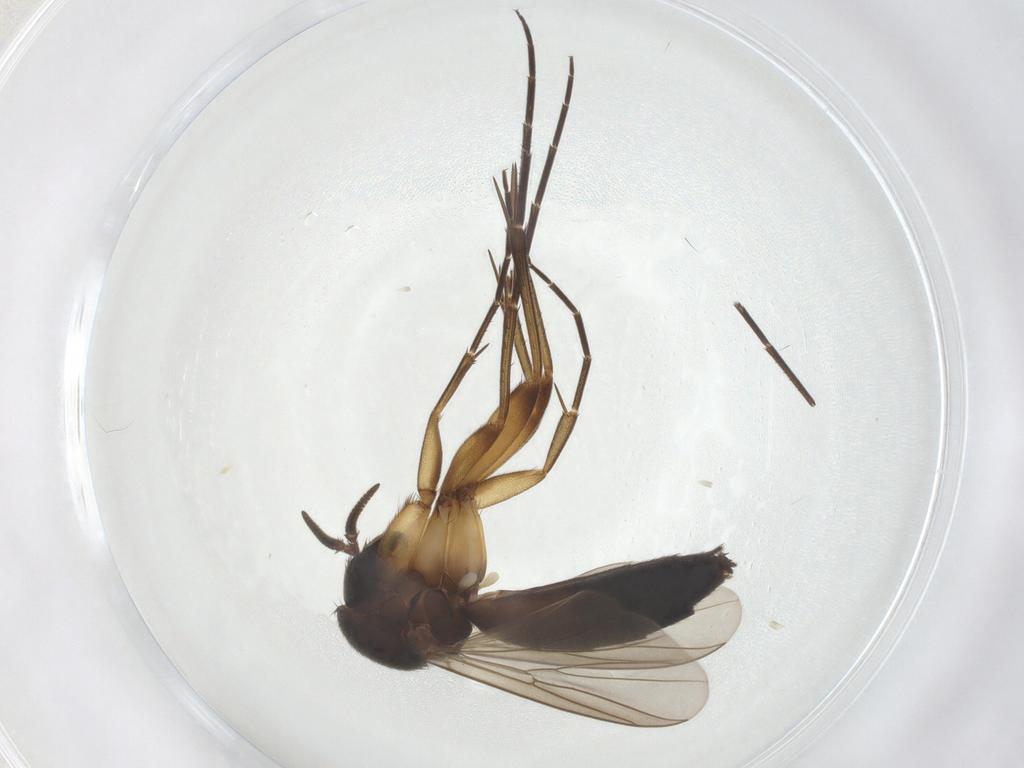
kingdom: Animalia
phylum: Arthropoda
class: Insecta
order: Diptera
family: Mycetophilidae
